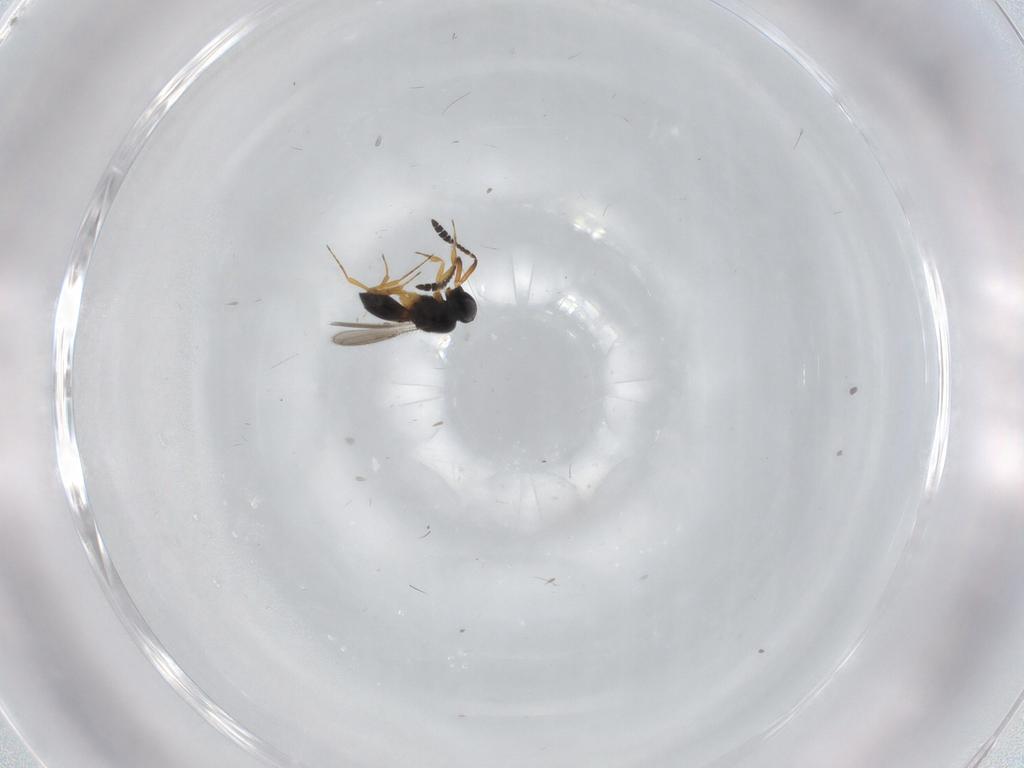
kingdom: Animalia
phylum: Arthropoda
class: Insecta
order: Hymenoptera
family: Scelionidae
